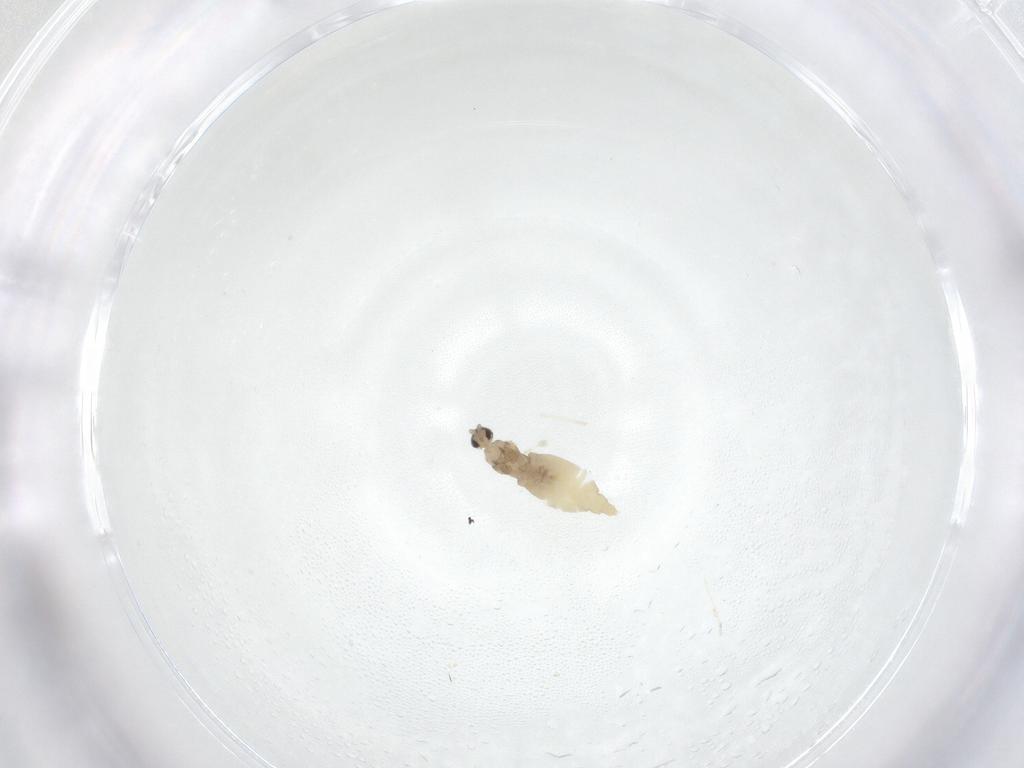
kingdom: Animalia
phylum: Arthropoda
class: Insecta
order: Diptera
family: Cecidomyiidae
